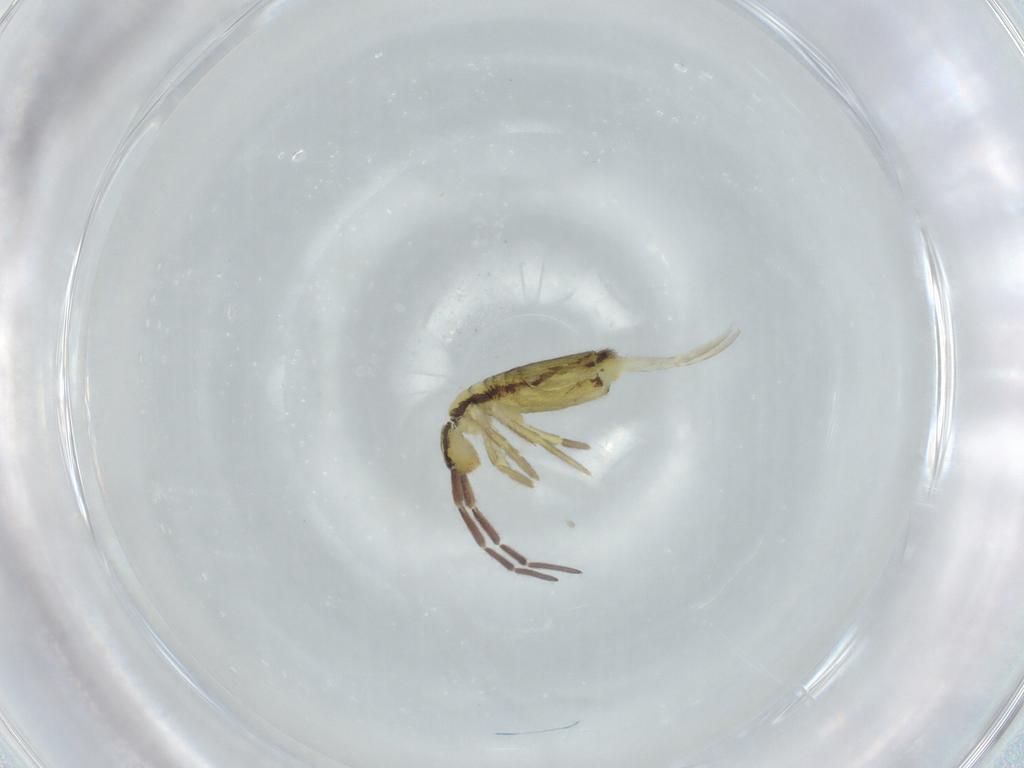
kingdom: Animalia
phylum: Arthropoda
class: Collembola
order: Entomobryomorpha
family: Entomobryidae
